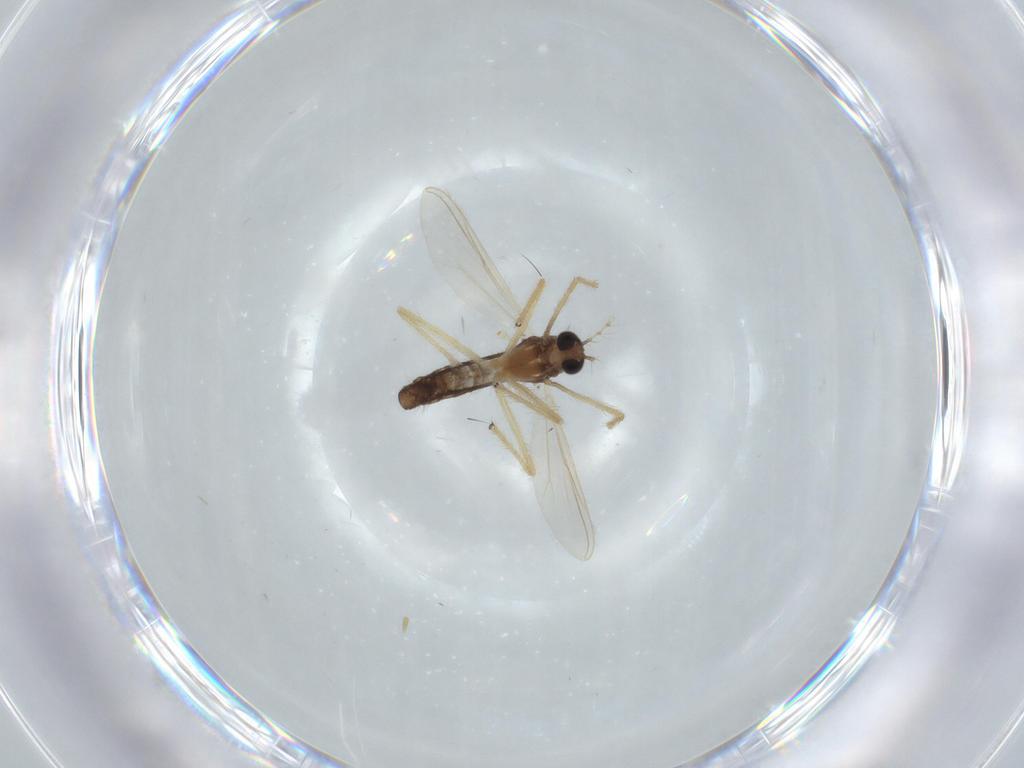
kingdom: Animalia
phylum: Arthropoda
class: Insecta
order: Diptera
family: Chironomidae
